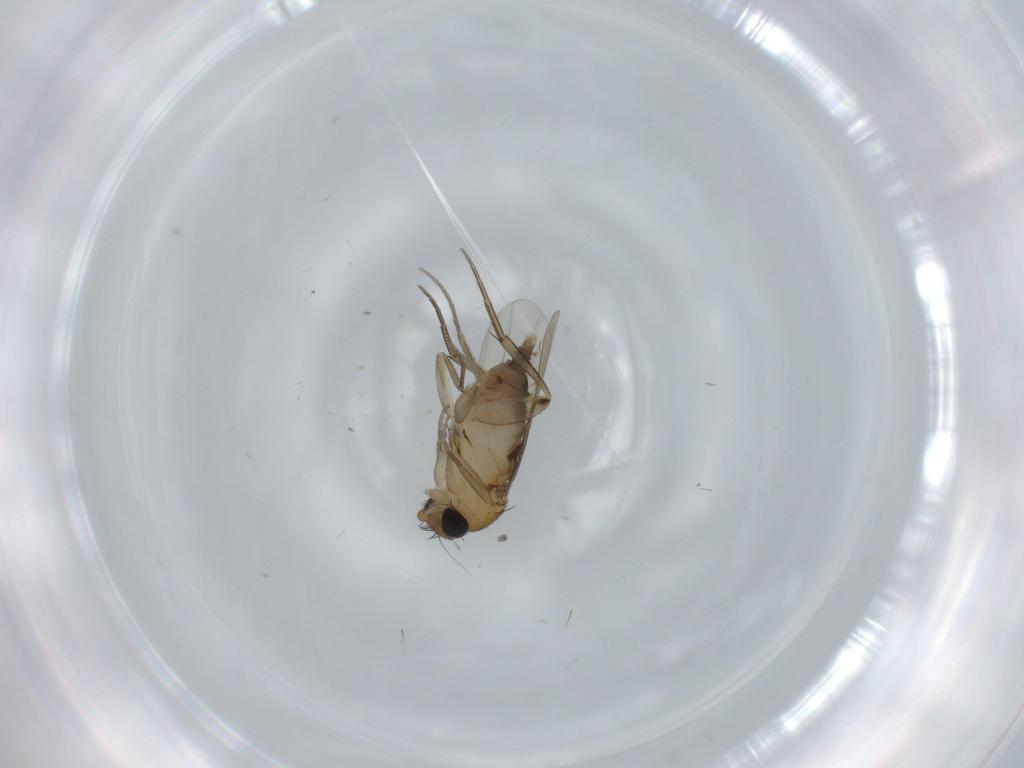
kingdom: Animalia
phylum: Arthropoda
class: Insecta
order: Diptera
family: Phoridae
